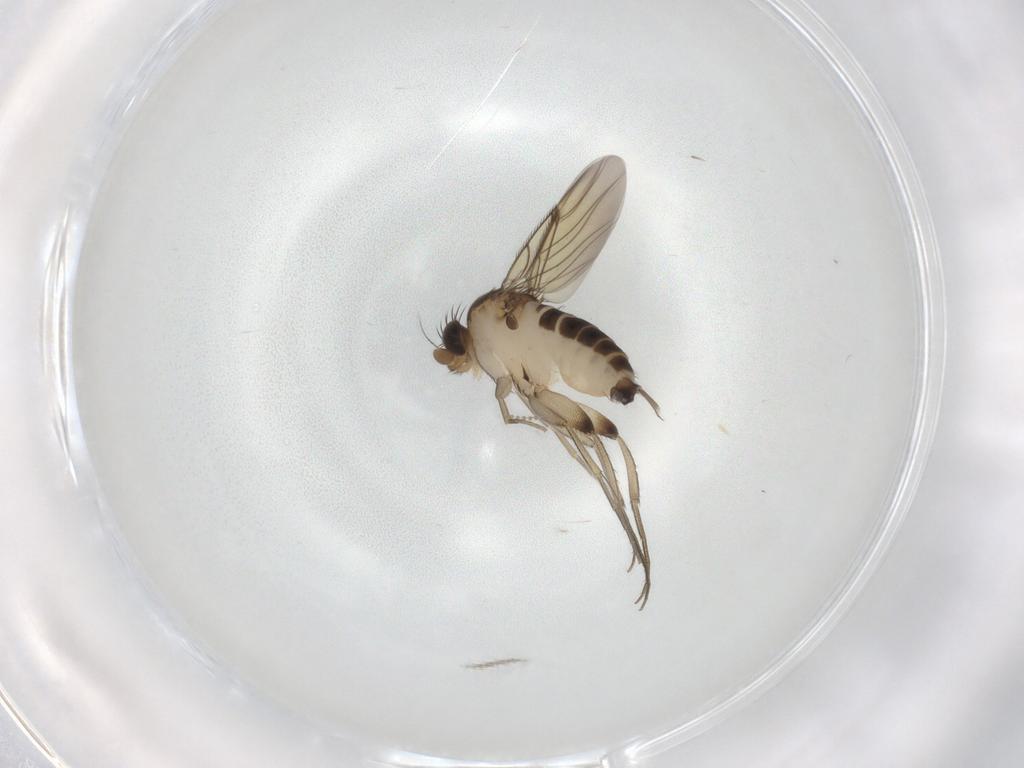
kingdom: Animalia
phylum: Arthropoda
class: Insecta
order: Diptera
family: Phoridae
